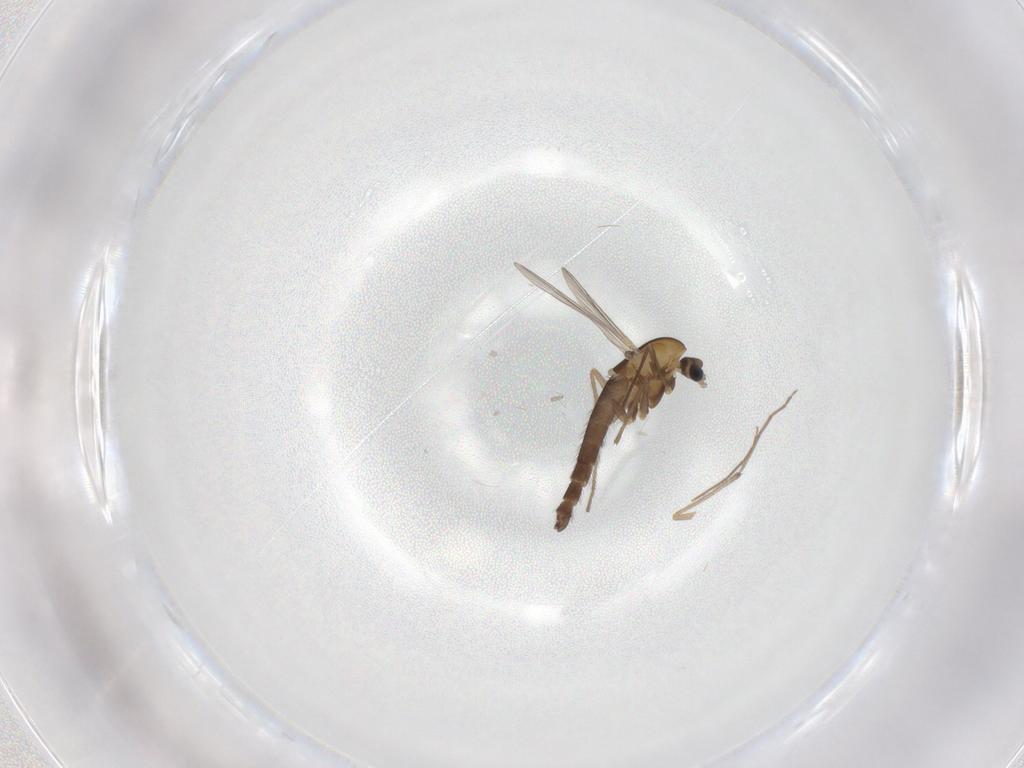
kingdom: Animalia
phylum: Arthropoda
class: Insecta
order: Diptera
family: Chironomidae
